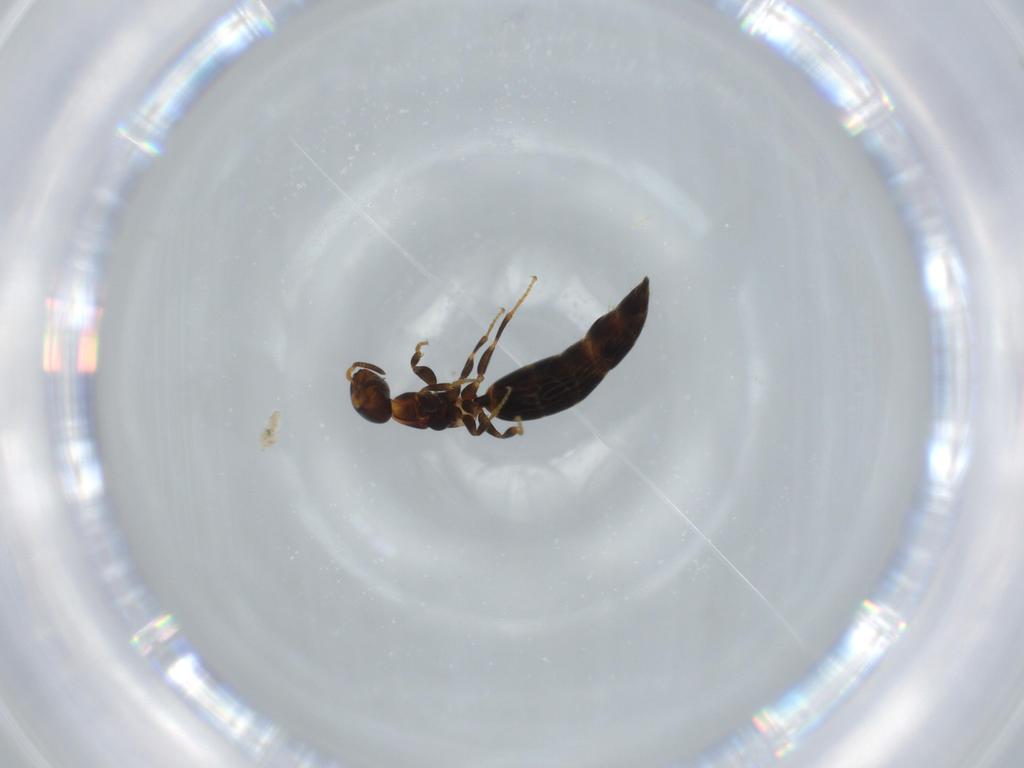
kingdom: Animalia
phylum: Arthropoda
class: Insecta
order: Hymenoptera
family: Bethylidae
